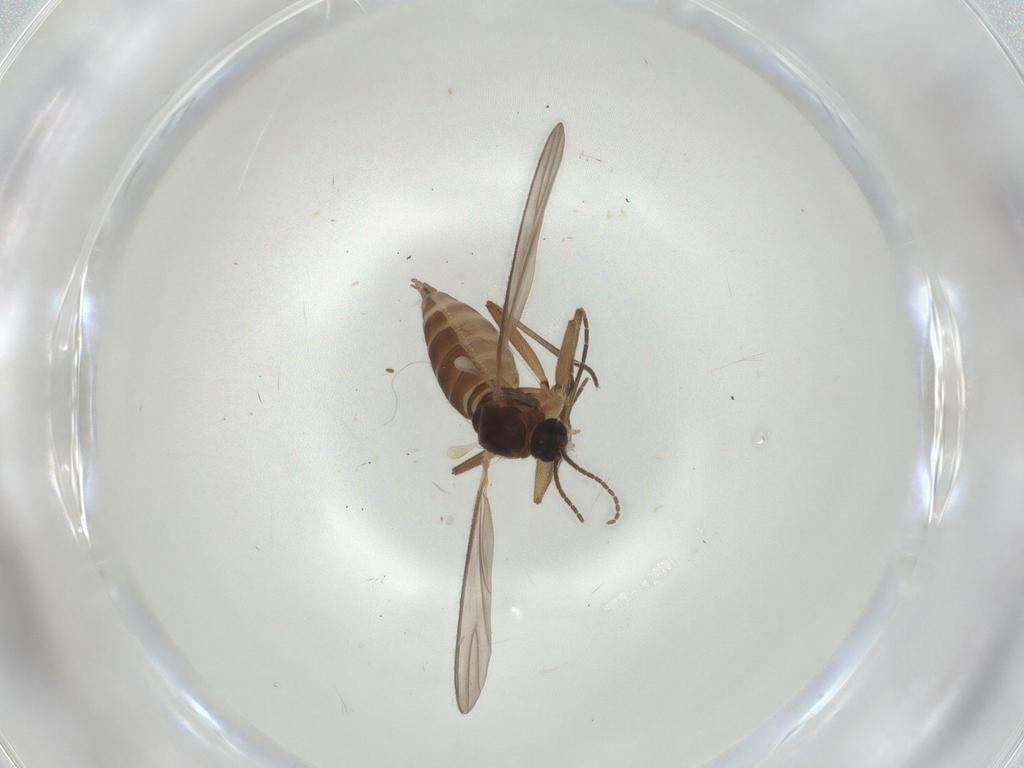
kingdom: Animalia
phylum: Arthropoda
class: Insecta
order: Diptera
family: Sciaridae
